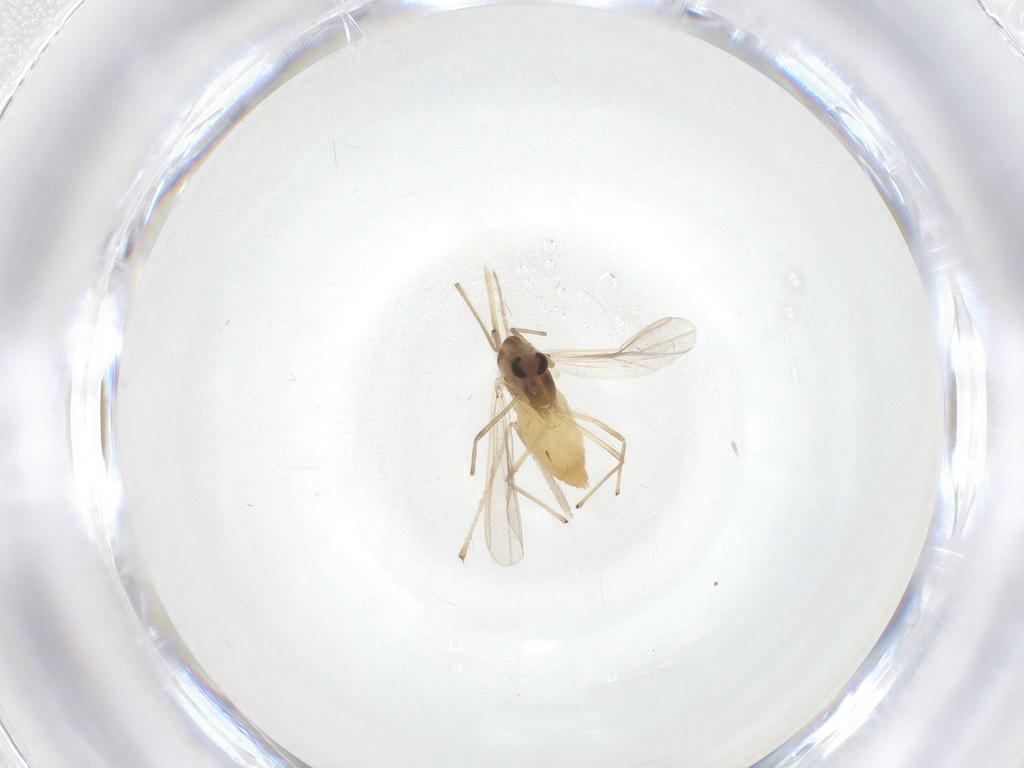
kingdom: Animalia
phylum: Arthropoda
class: Insecta
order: Diptera
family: Chironomidae
